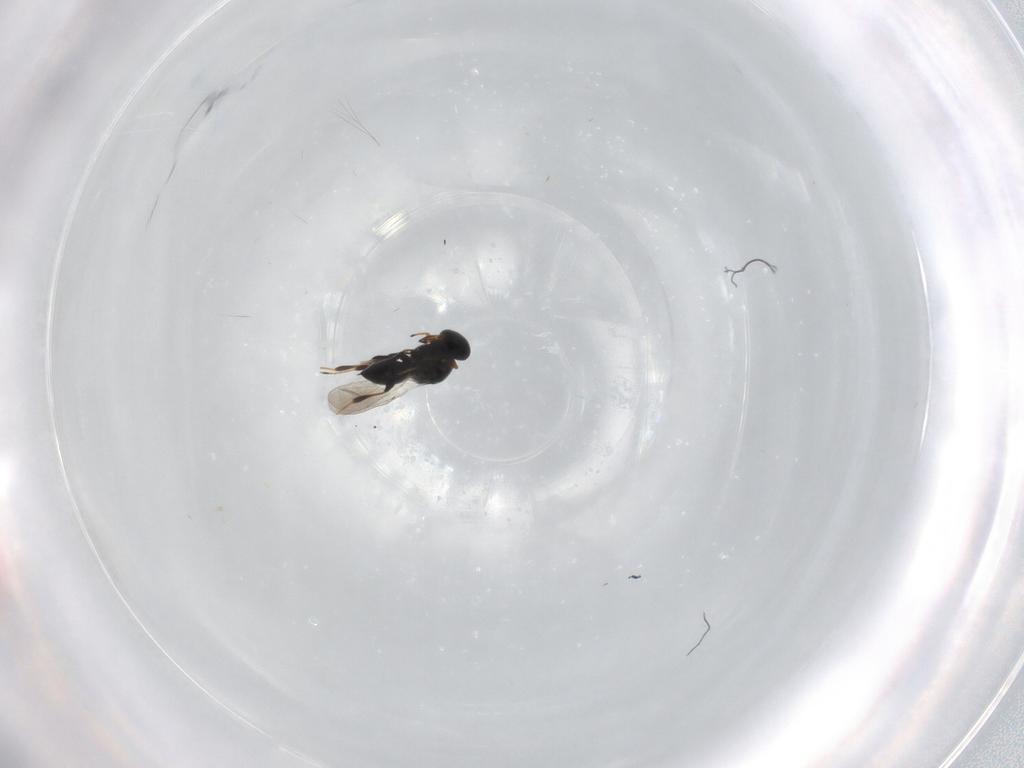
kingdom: Animalia
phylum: Arthropoda
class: Insecta
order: Hymenoptera
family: Platygastridae
